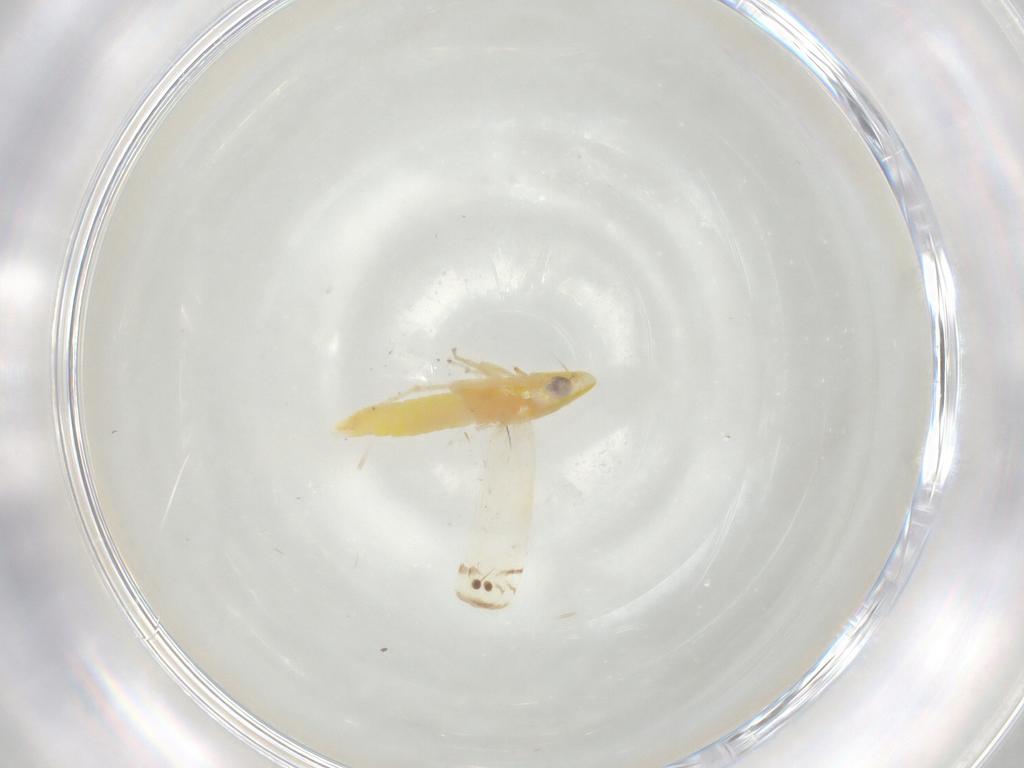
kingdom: Animalia
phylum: Arthropoda
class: Insecta
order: Hemiptera
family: Cicadellidae
